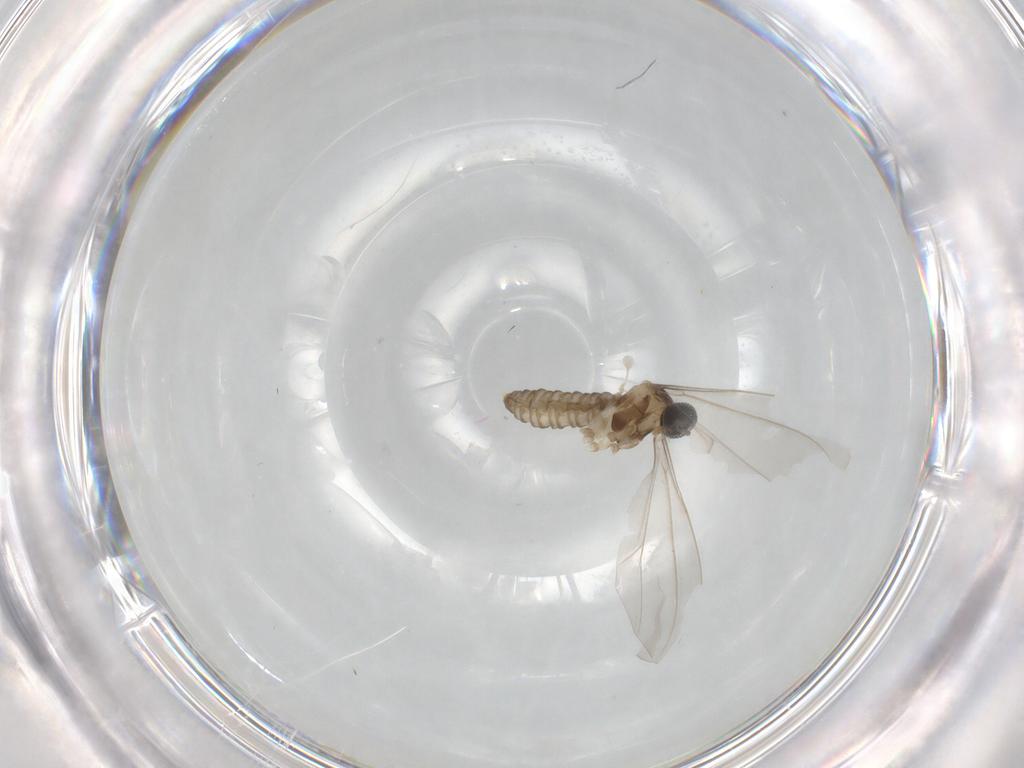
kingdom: Animalia
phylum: Arthropoda
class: Insecta
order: Diptera
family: Cecidomyiidae
